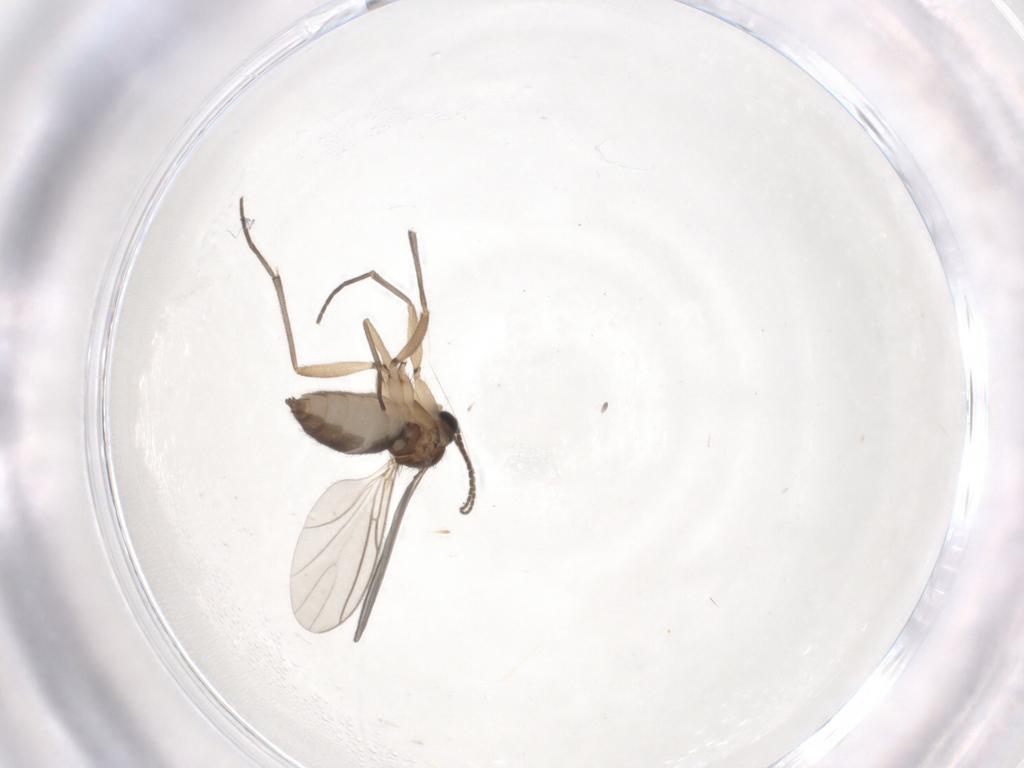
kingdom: Animalia
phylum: Arthropoda
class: Insecta
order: Diptera
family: Sciaridae
